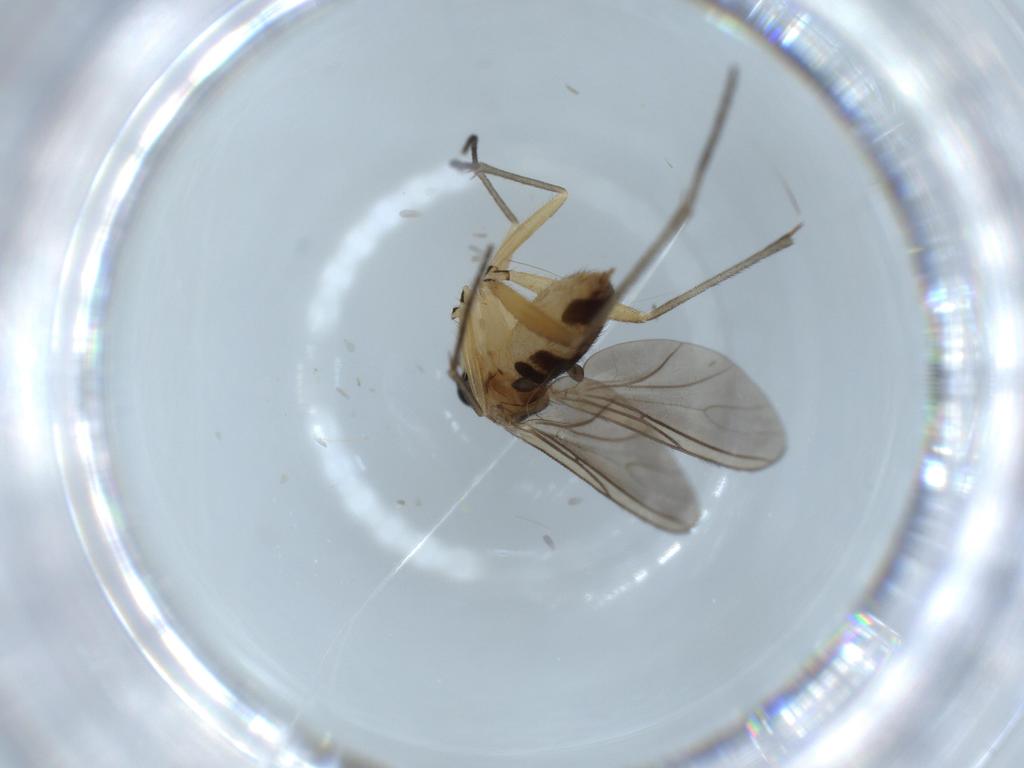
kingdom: Animalia
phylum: Arthropoda
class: Insecta
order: Diptera
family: Sciaridae
